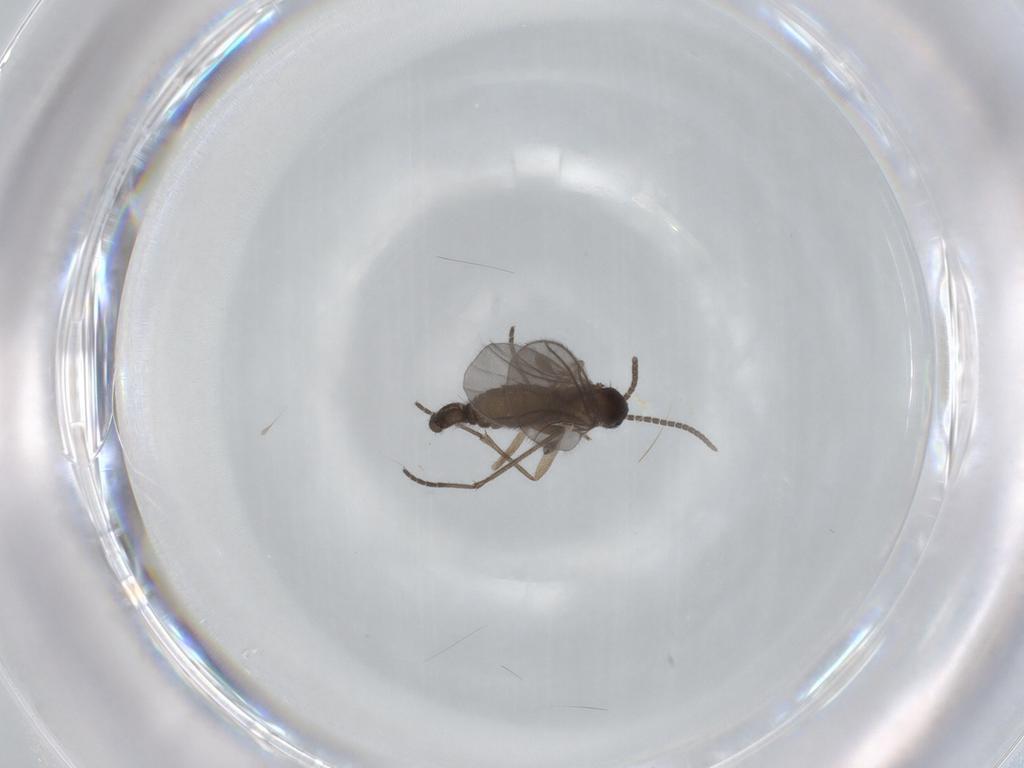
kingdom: Animalia
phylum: Arthropoda
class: Insecta
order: Diptera
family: Sciaridae
